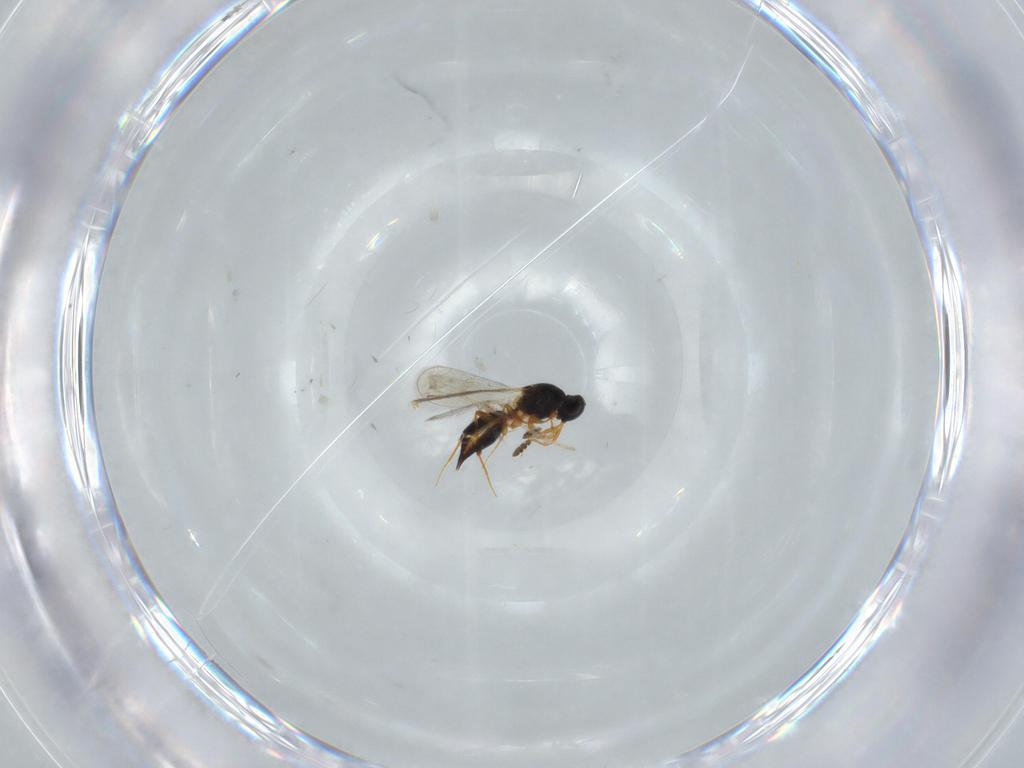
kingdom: Animalia
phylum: Arthropoda
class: Insecta
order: Hymenoptera
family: Platygastridae
